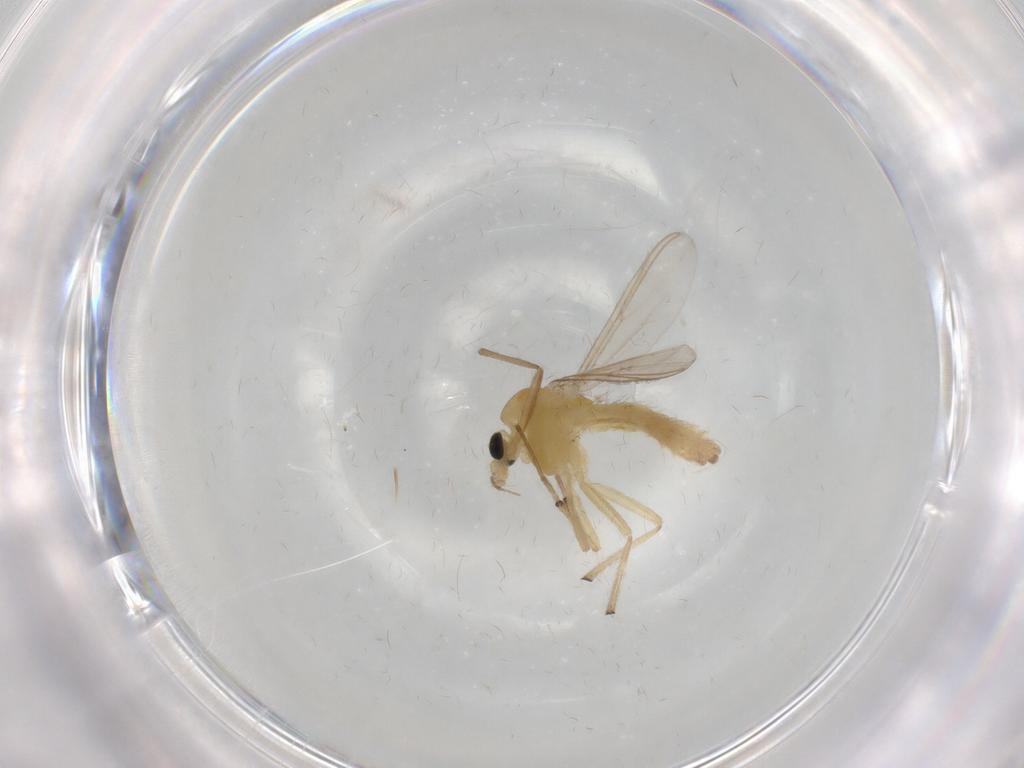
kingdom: Animalia
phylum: Arthropoda
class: Insecta
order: Diptera
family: Chironomidae
